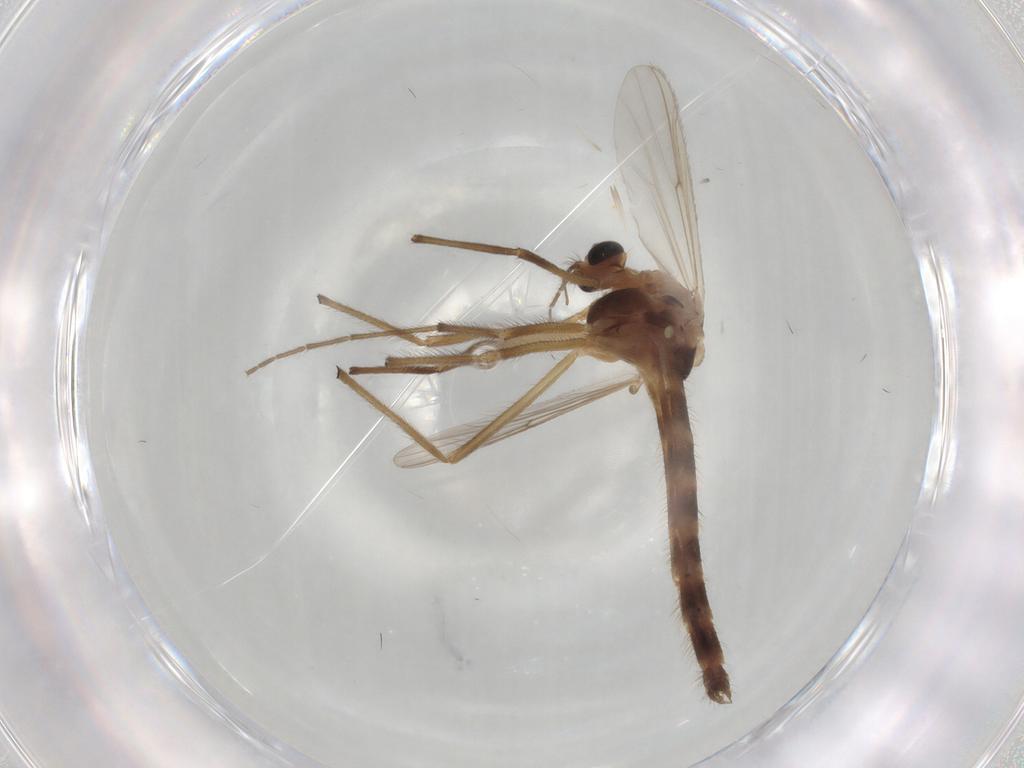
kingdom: Animalia
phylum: Arthropoda
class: Insecta
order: Diptera
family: Chironomidae
